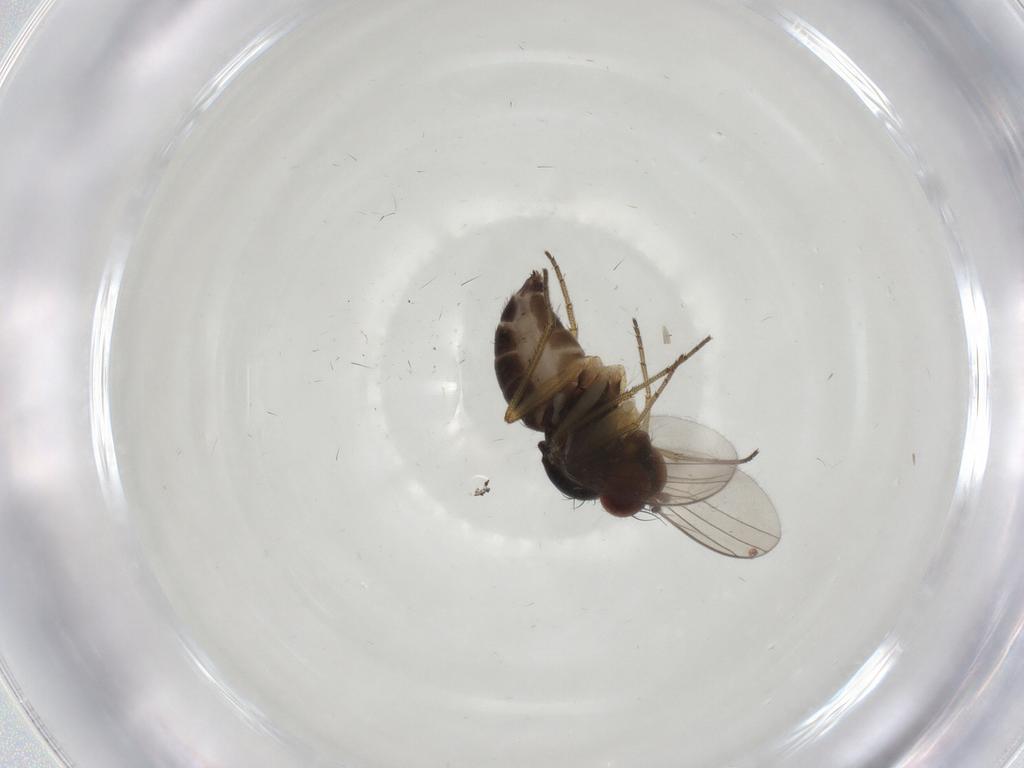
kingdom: Animalia
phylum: Arthropoda
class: Insecta
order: Diptera
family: Dolichopodidae
